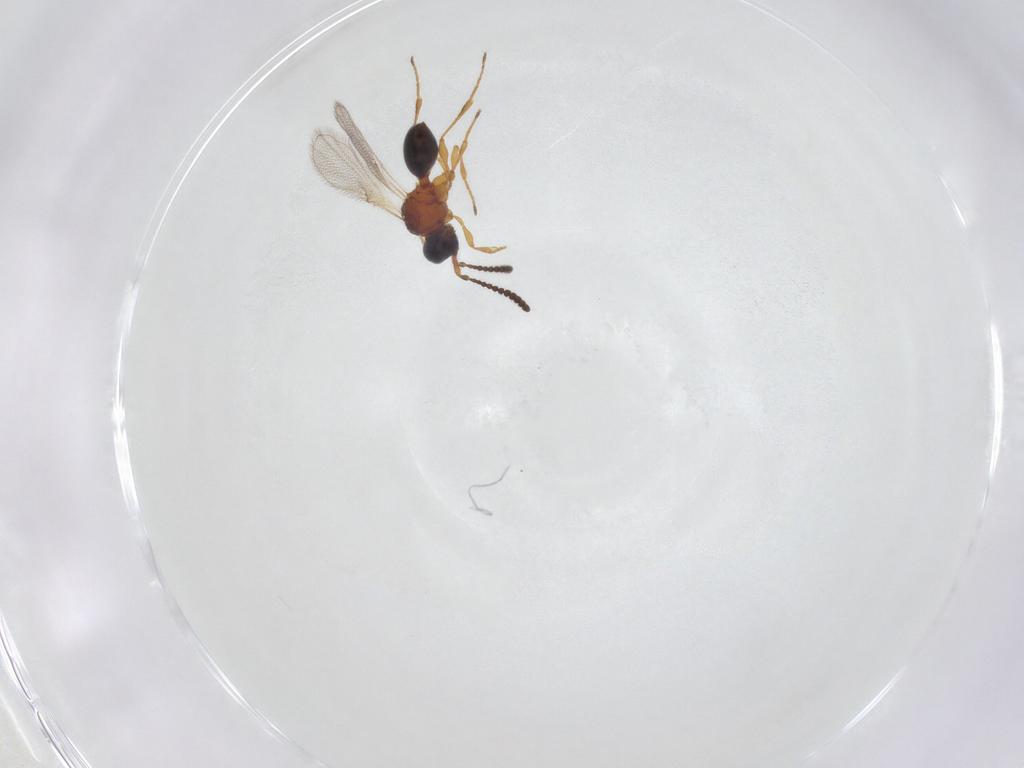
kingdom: Animalia
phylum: Arthropoda
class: Insecta
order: Hymenoptera
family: Diapriidae
